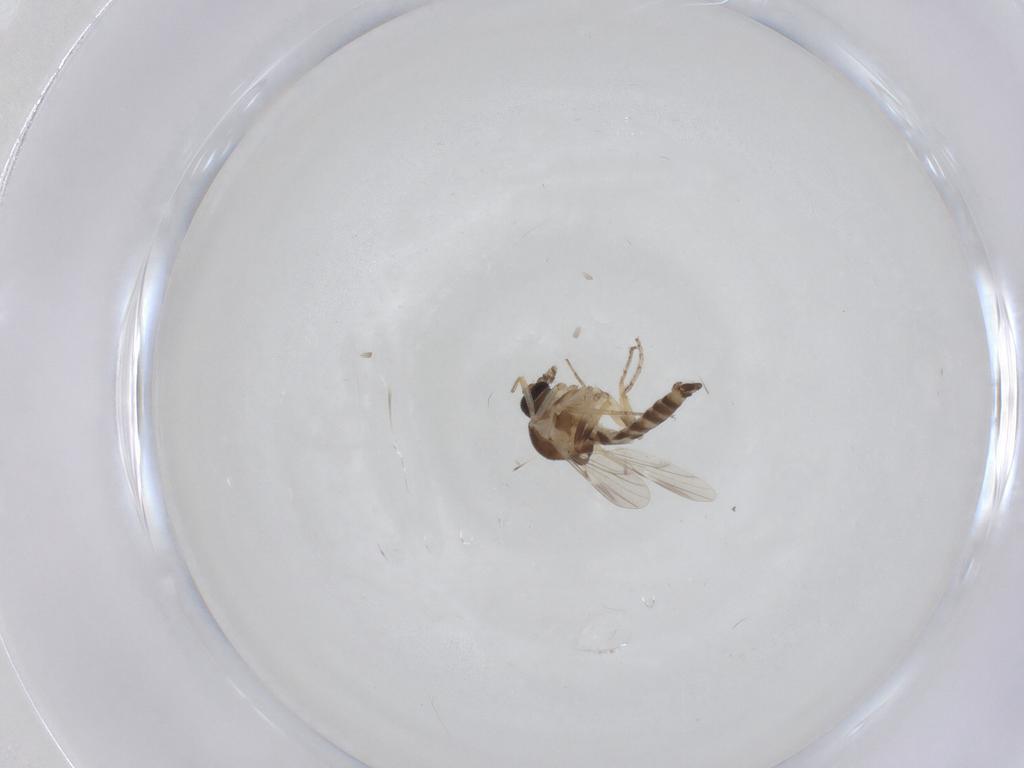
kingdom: Animalia
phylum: Arthropoda
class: Insecta
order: Diptera
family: Ceratopogonidae
